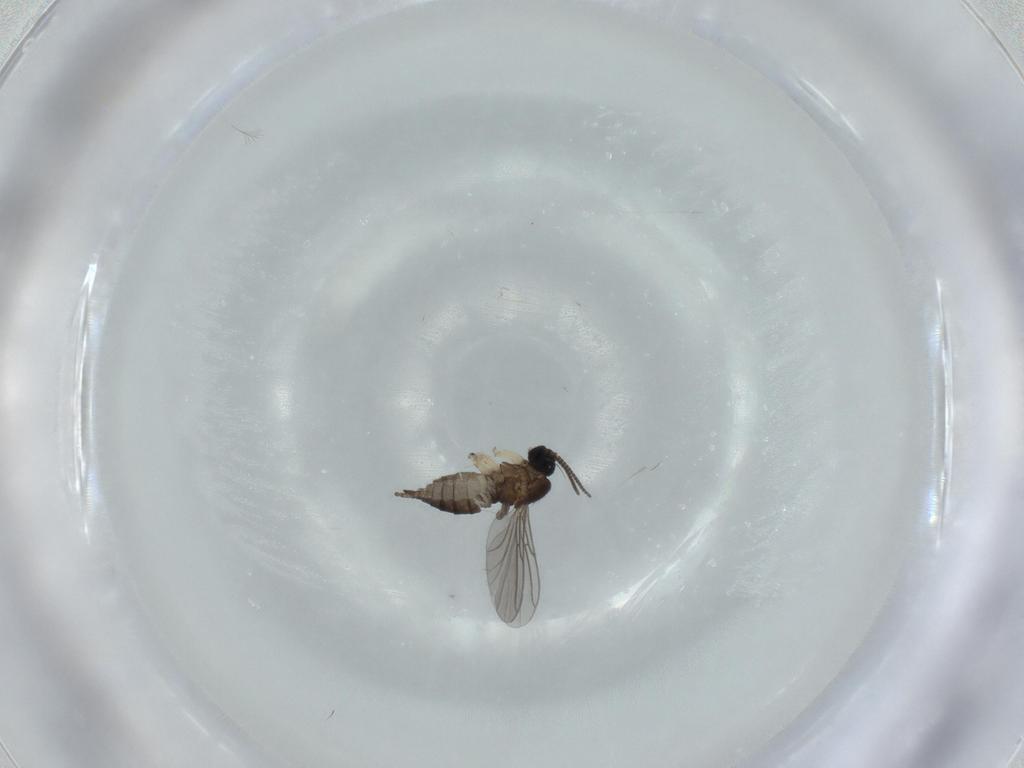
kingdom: Animalia
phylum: Arthropoda
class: Insecta
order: Diptera
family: Sciaridae
